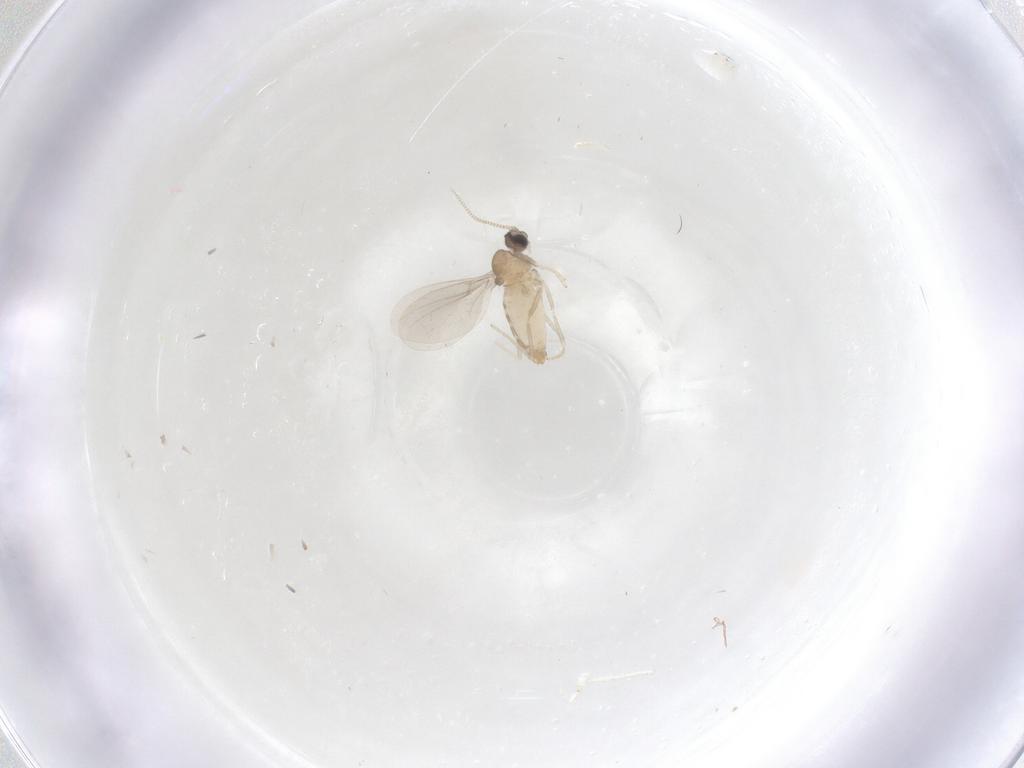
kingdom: Animalia
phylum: Arthropoda
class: Insecta
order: Diptera
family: Cecidomyiidae
